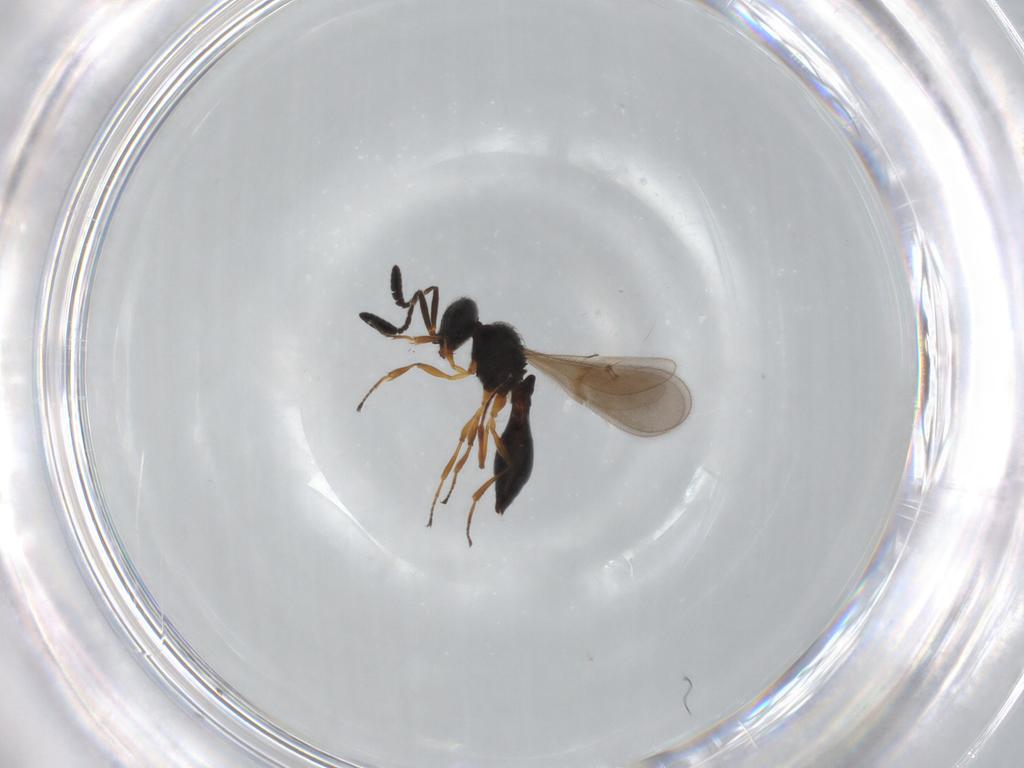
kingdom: Animalia
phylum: Arthropoda
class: Insecta
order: Hymenoptera
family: Scelionidae
